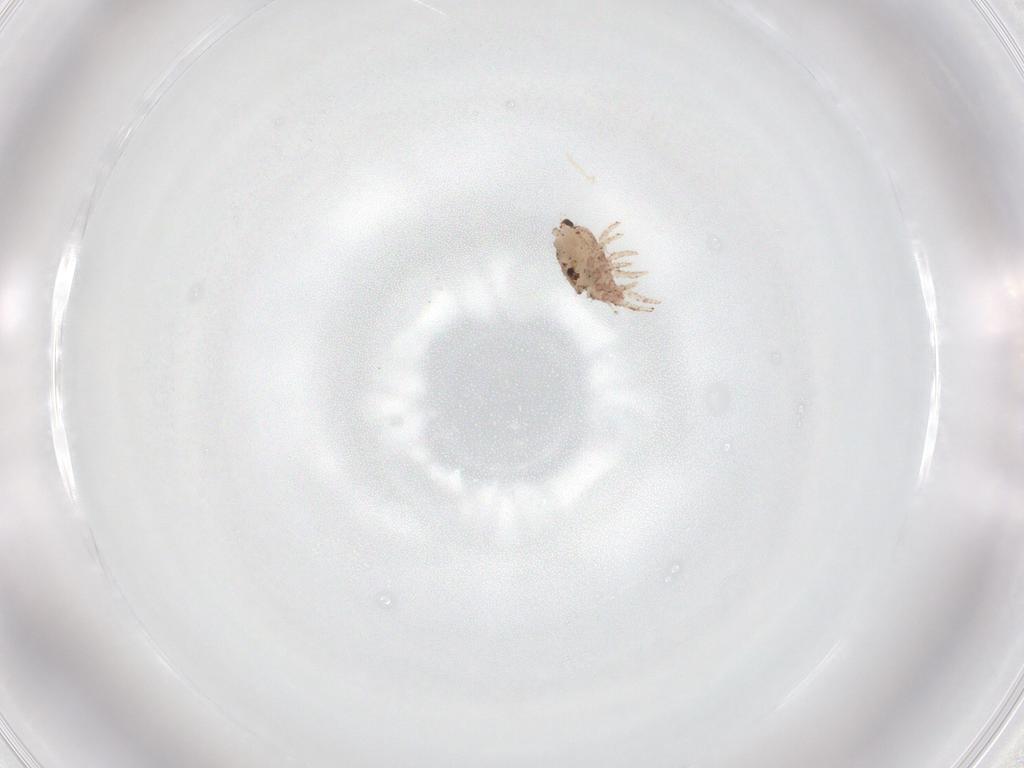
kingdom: Animalia
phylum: Arthropoda
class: Arachnida
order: Sarcoptiformes
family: Crotoniidae
